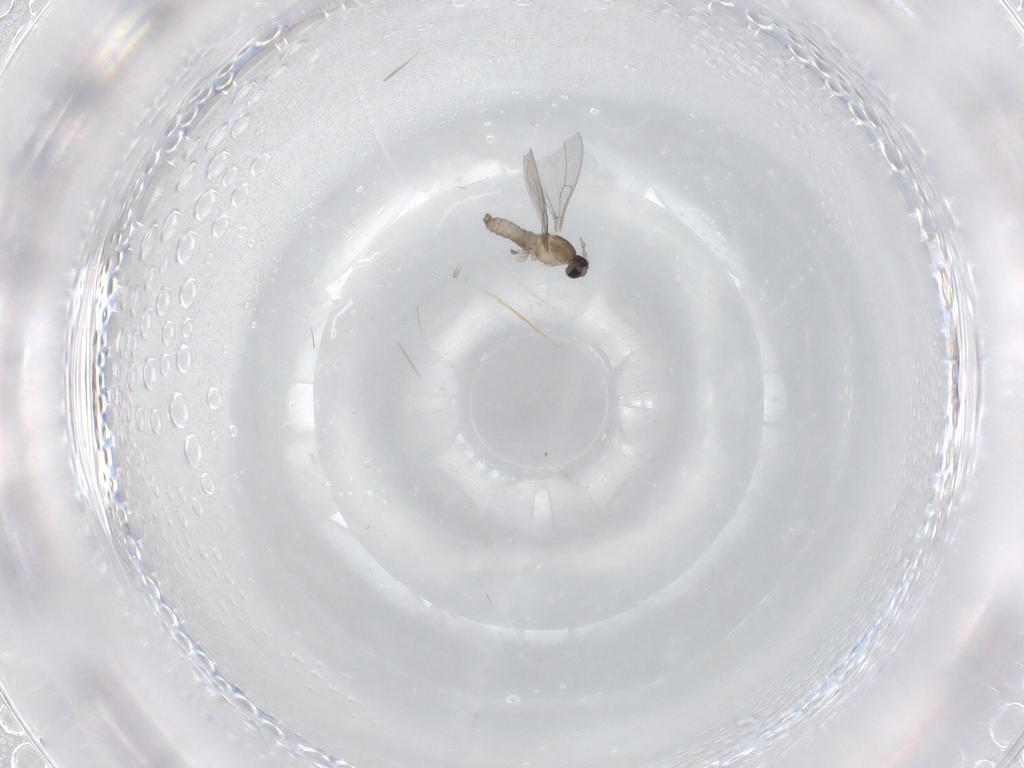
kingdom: Animalia
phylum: Arthropoda
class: Insecta
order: Diptera
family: Cecidomyiidae
